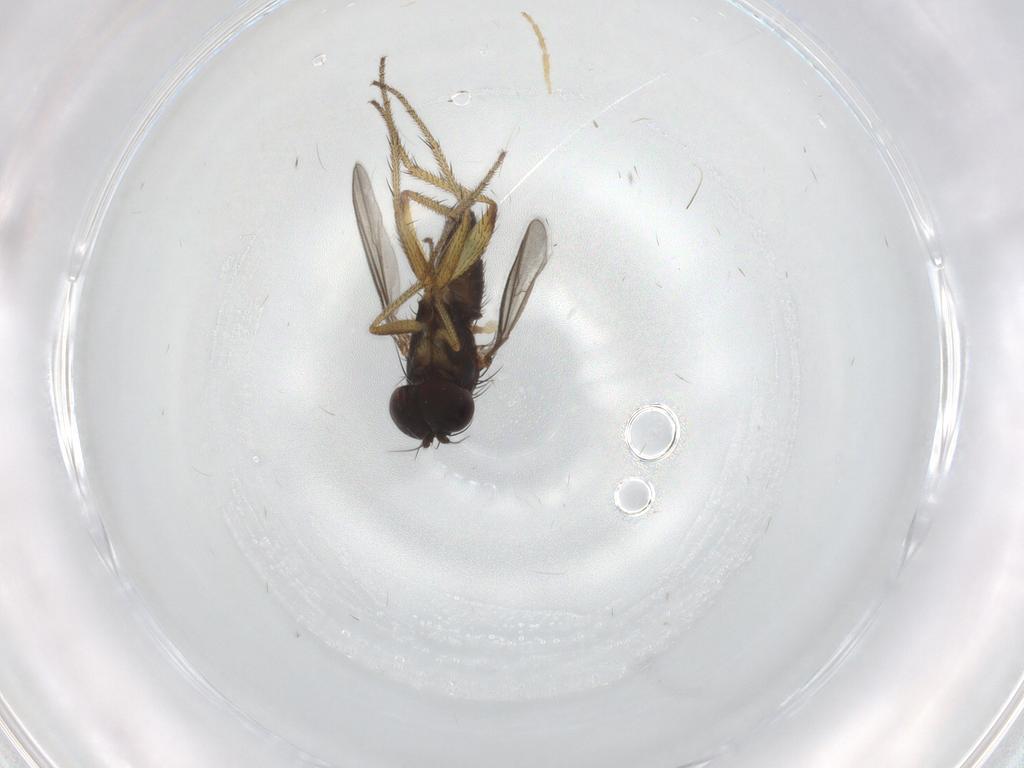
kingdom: Animalia
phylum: Arthropoda
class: Insecta
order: Diptera
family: Chironomidae
